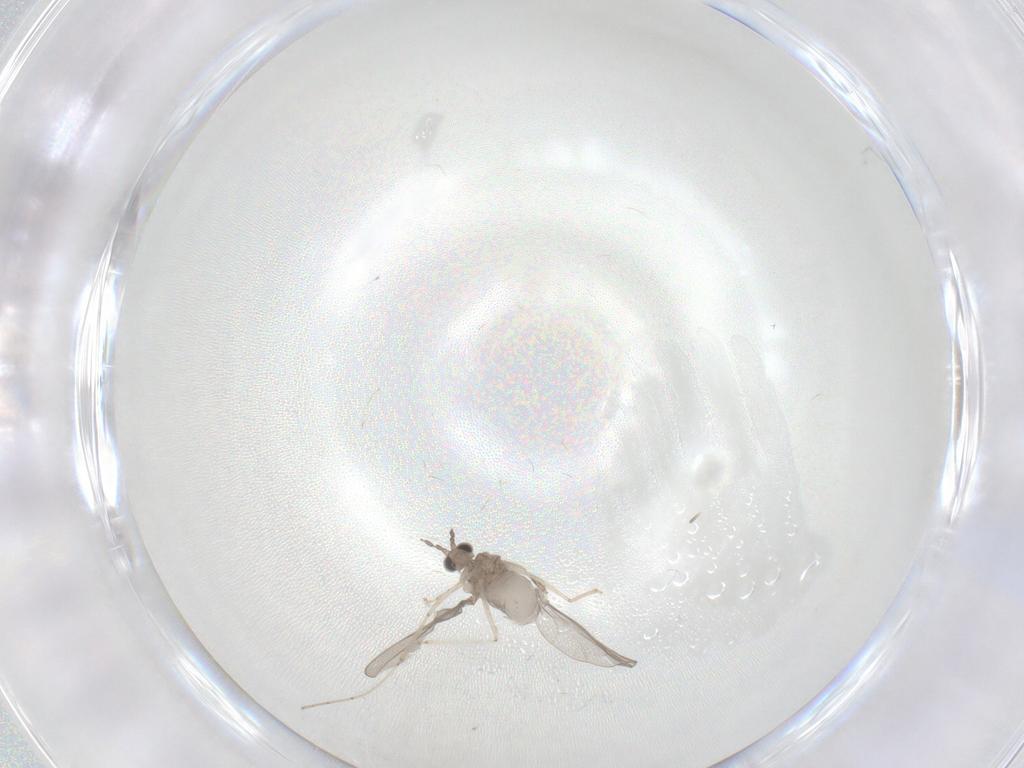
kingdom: Animalia
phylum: Arthropoda
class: Insecta
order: Diptera
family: Cecidomyiidae
